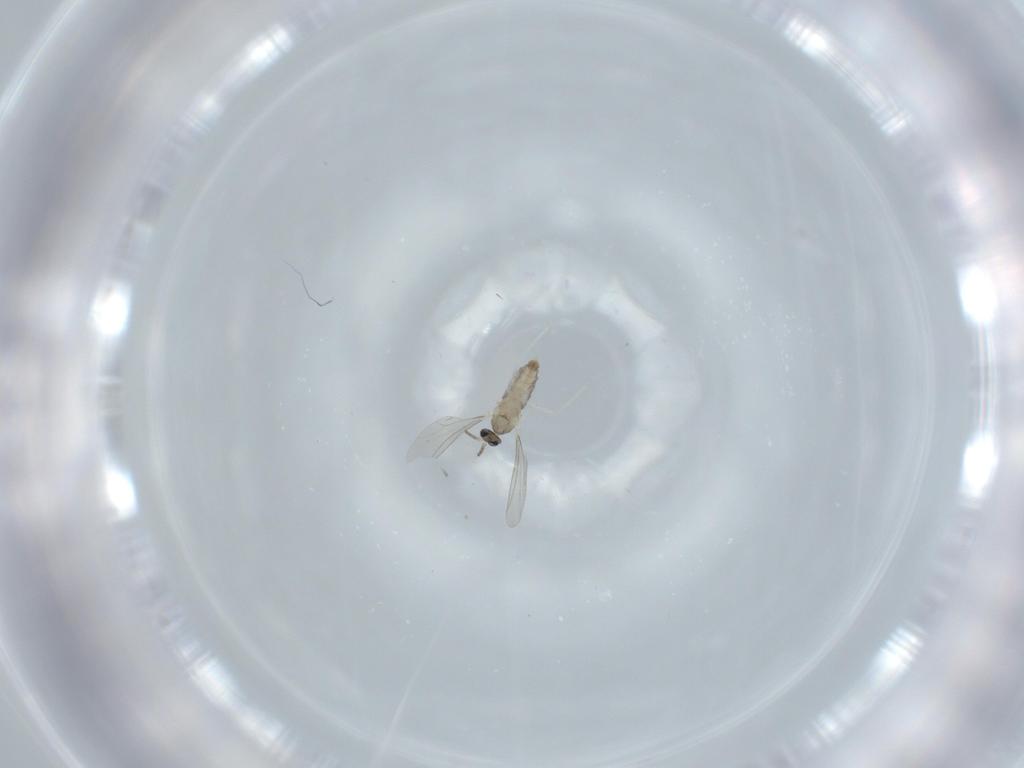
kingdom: Animalia
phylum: Arthropoda
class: Insecta
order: Diptera
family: Cecidomyiidae
